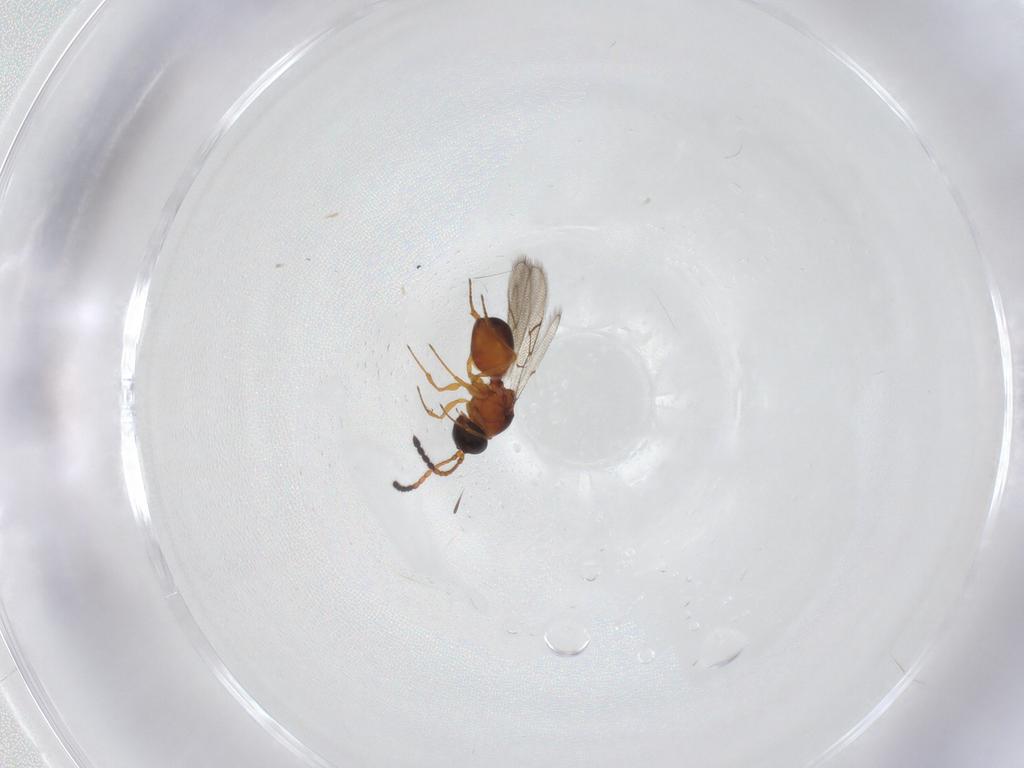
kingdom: Animalia
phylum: Arthropoda
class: Insecta
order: Hymenoptera
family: Figitidae
